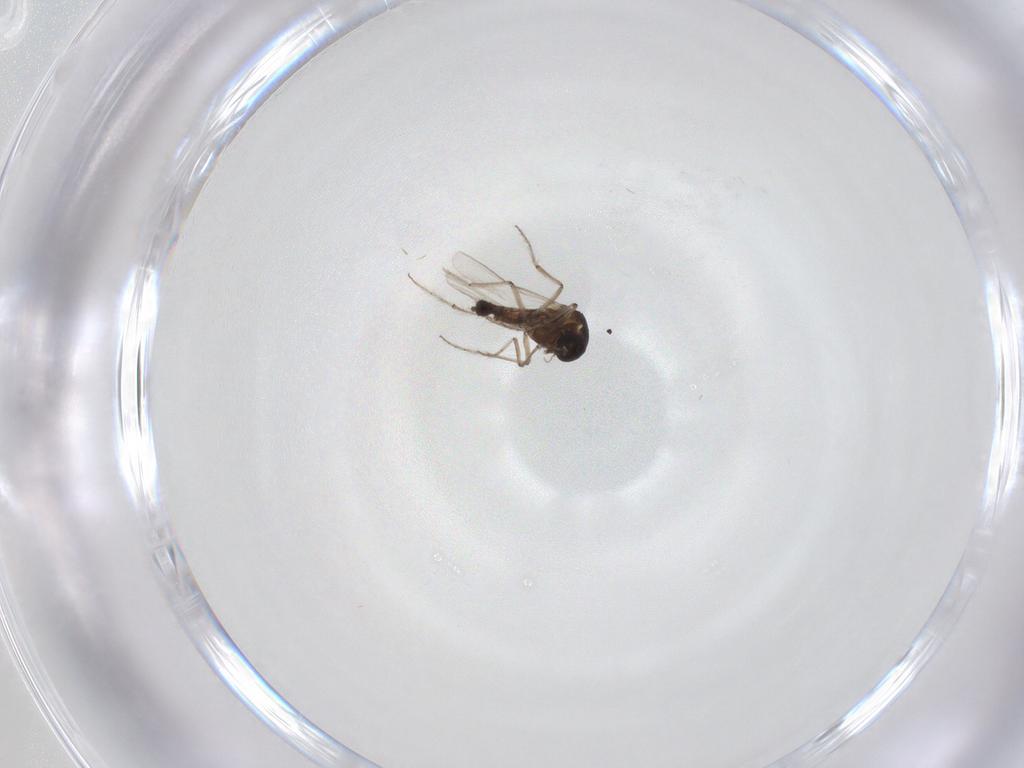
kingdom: Animalia
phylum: Arthropoda
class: Insecta
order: Diptera
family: Ceratopogonidae
